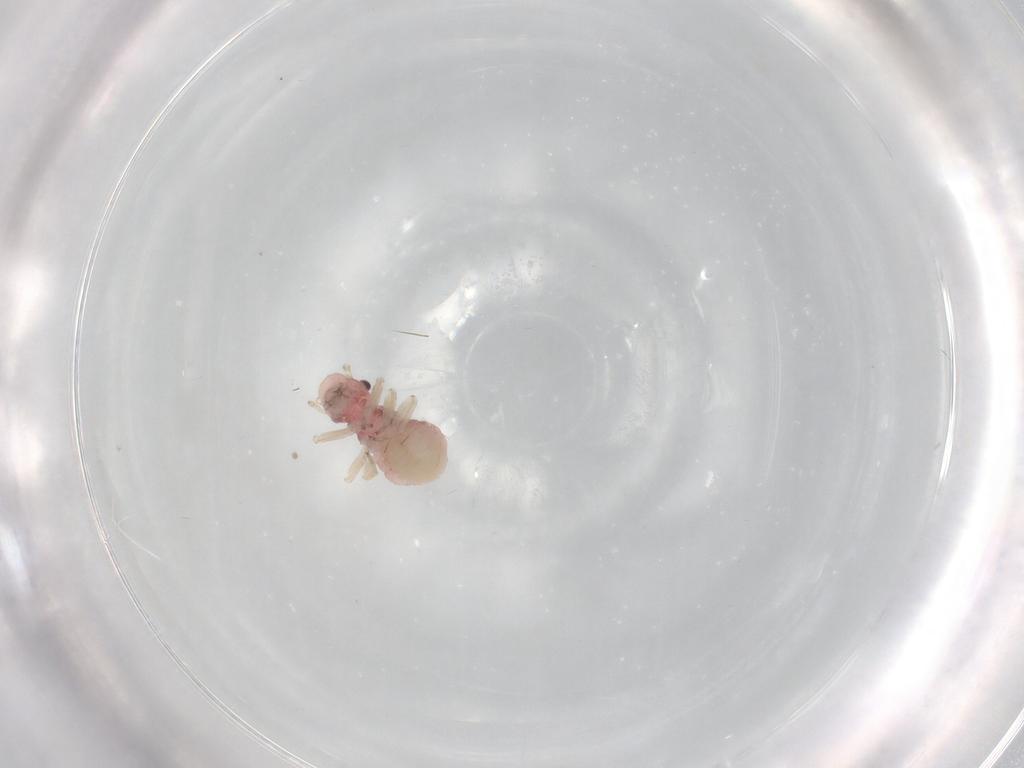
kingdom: Animalia
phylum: Arthropoda
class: Insecta
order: Psocodea
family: Caeciliusidae
